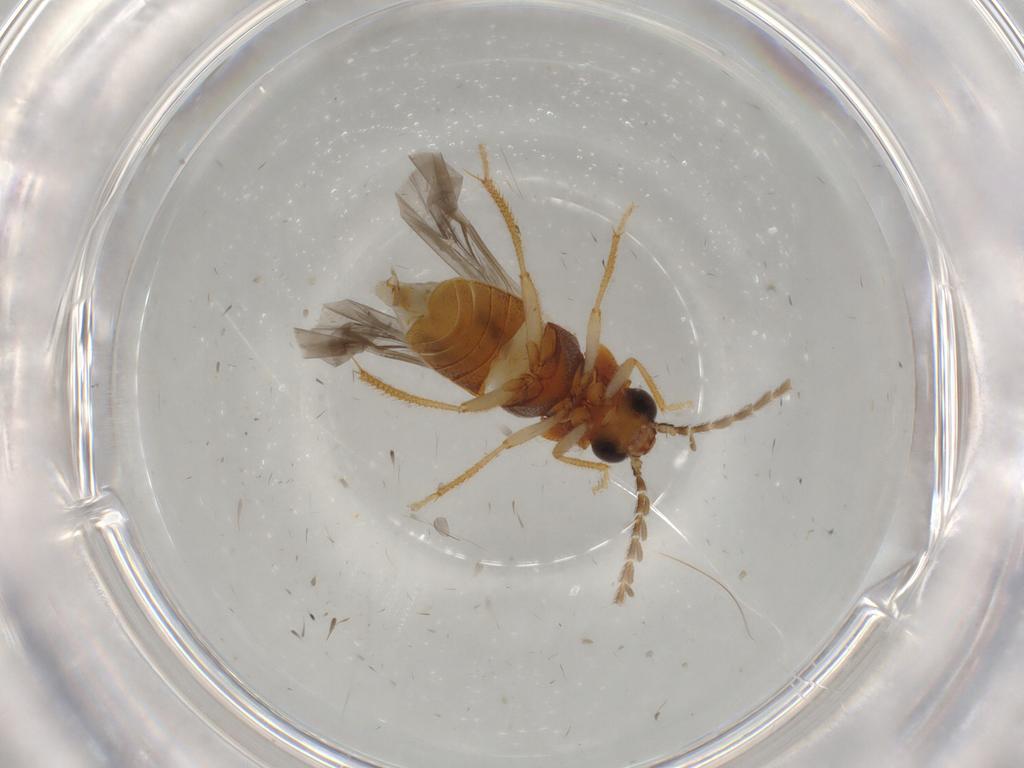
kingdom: Animalia
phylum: Arthropoda
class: Insecta
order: Coleoptera
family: Ptilodactylidae
